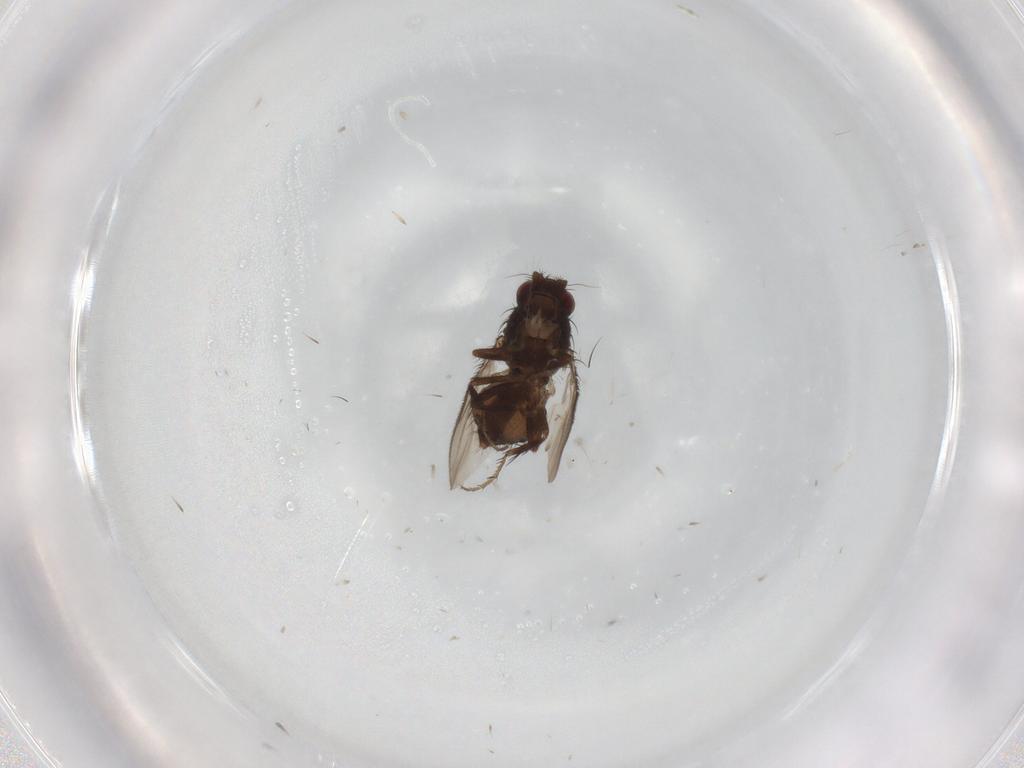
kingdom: Animalia
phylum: Arthropoda
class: Insecta
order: Diptera
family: Sphaeroceridae
